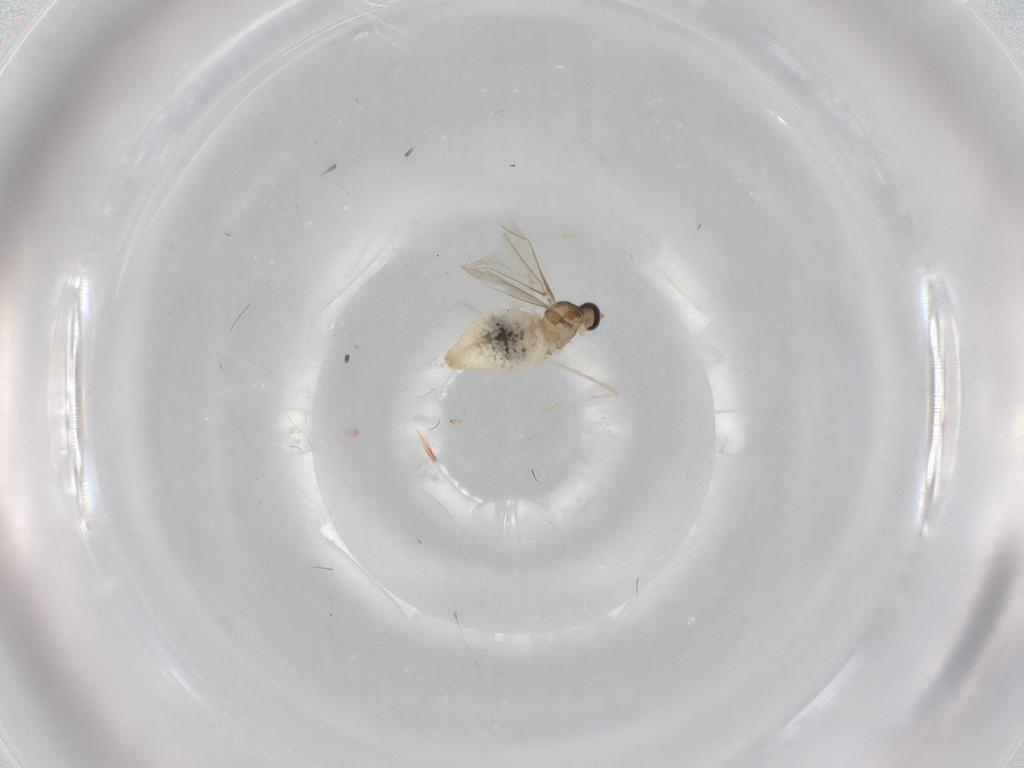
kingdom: Animalia
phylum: Arthropoda
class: Insecta
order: Diptera
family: Cecidomyiidae
